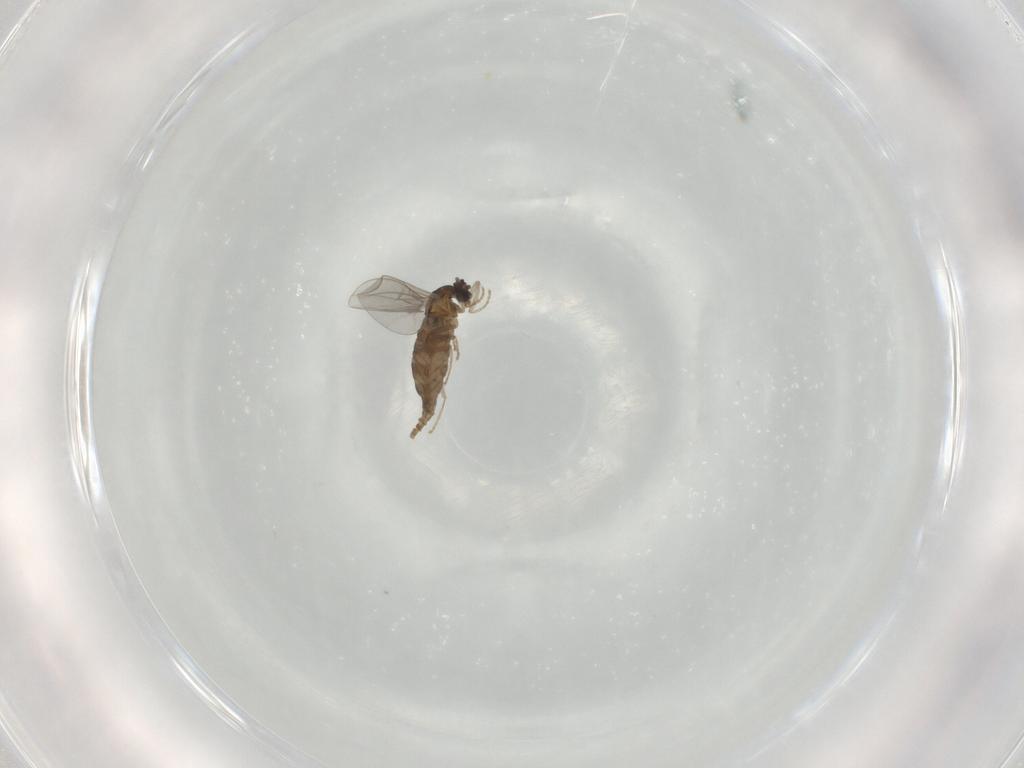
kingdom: Animalia
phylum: Arthropoda
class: Insecta
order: Diptera
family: Cecidomyiidae
